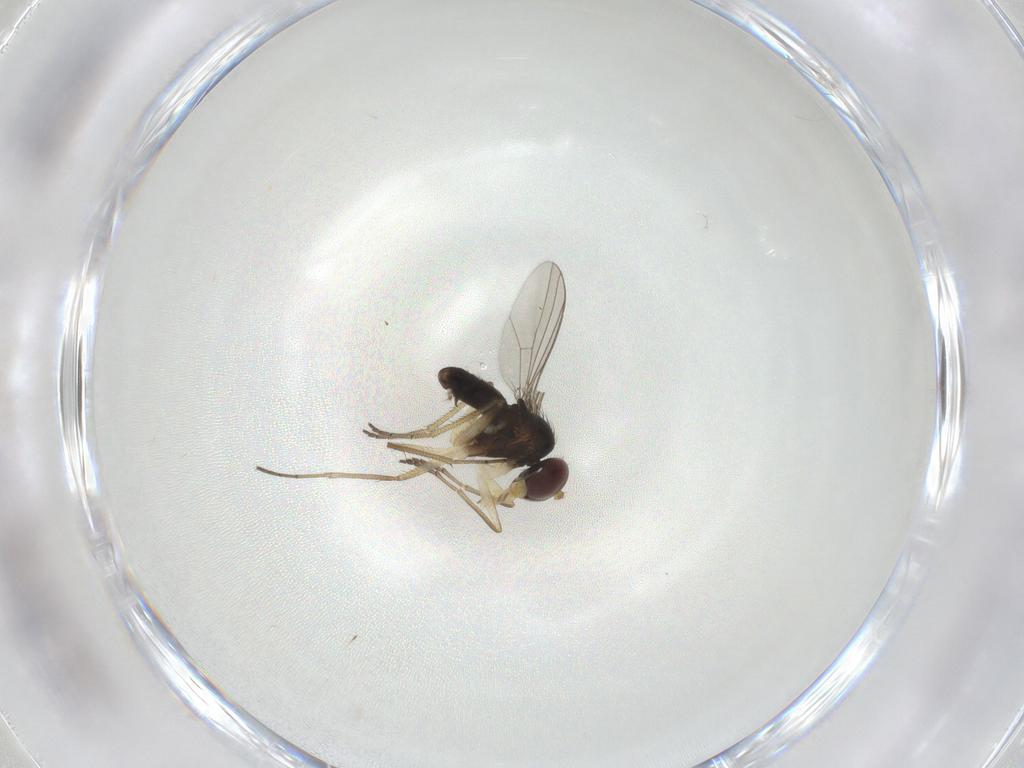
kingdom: Animalia
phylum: Arthropoda
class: Insecta
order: Diptera
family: Dolichopodidae
